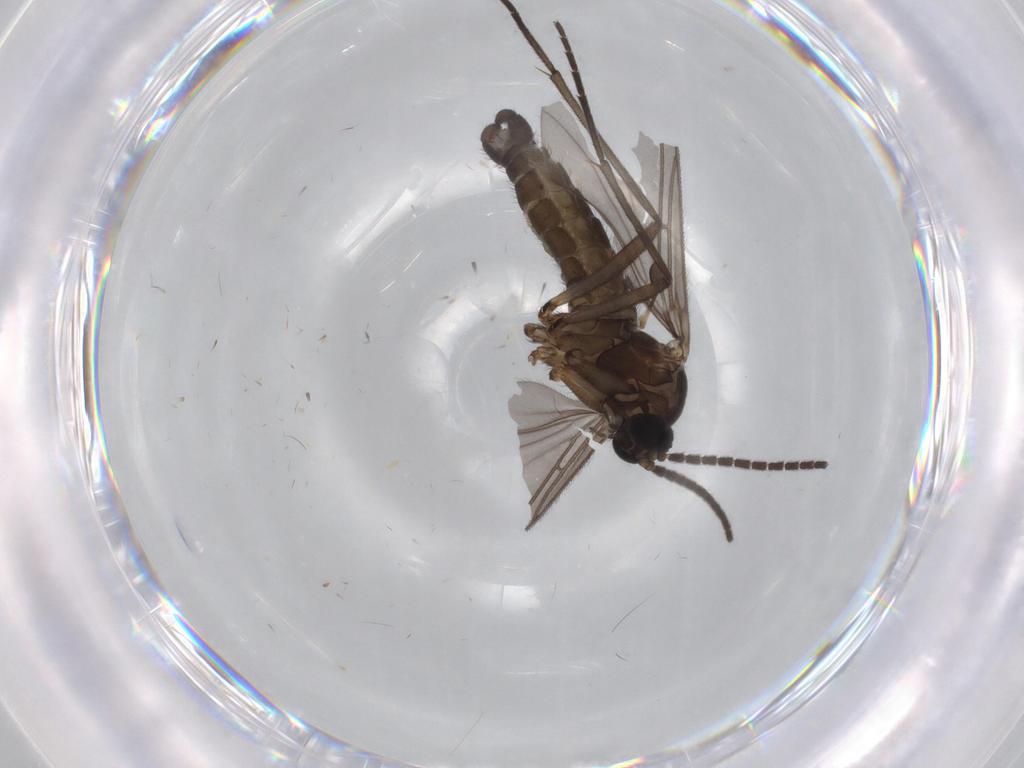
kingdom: Animalia
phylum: Arthropoda
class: Insecta
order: Diptera
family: Sciaridae
